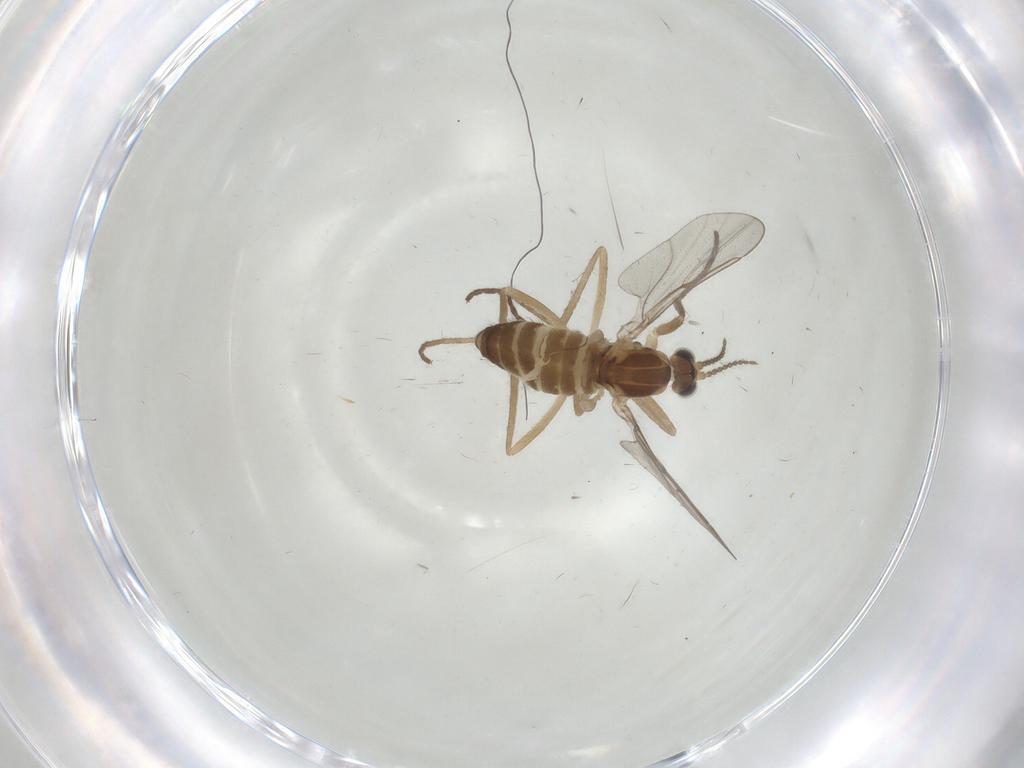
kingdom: Animalia
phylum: Arthropoda
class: Insecta
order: Diptera
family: Cecidomyiidae
